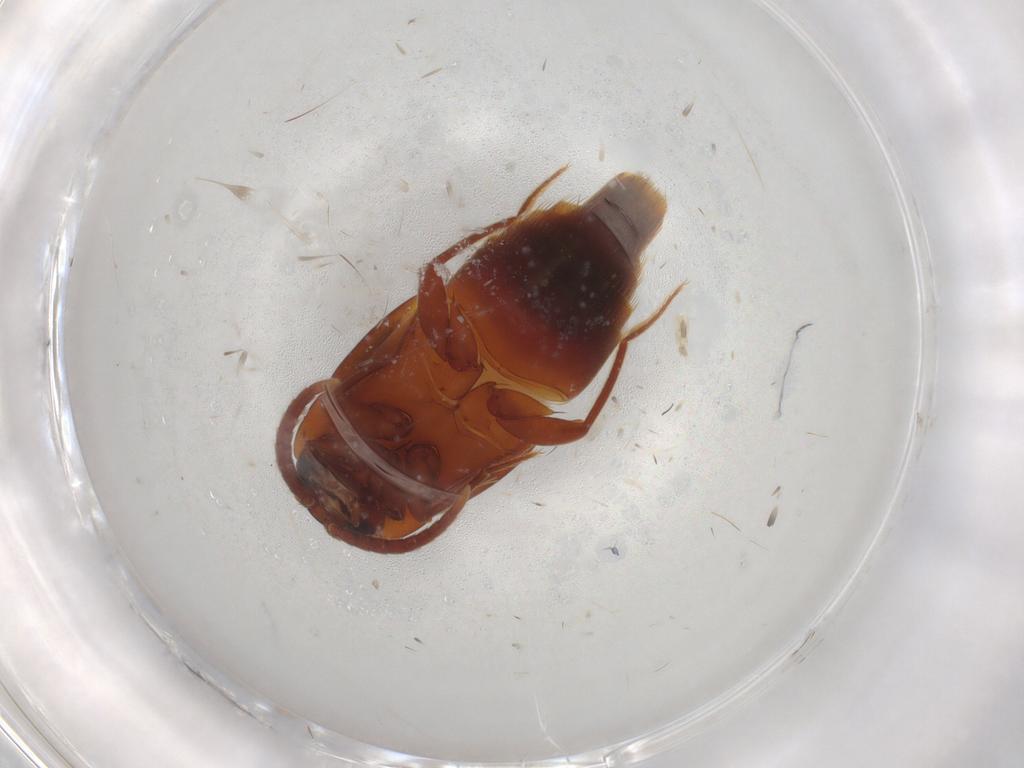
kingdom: Animalia
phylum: Arthropoda
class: Insecta
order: Coleoptera
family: Staphylinidae
